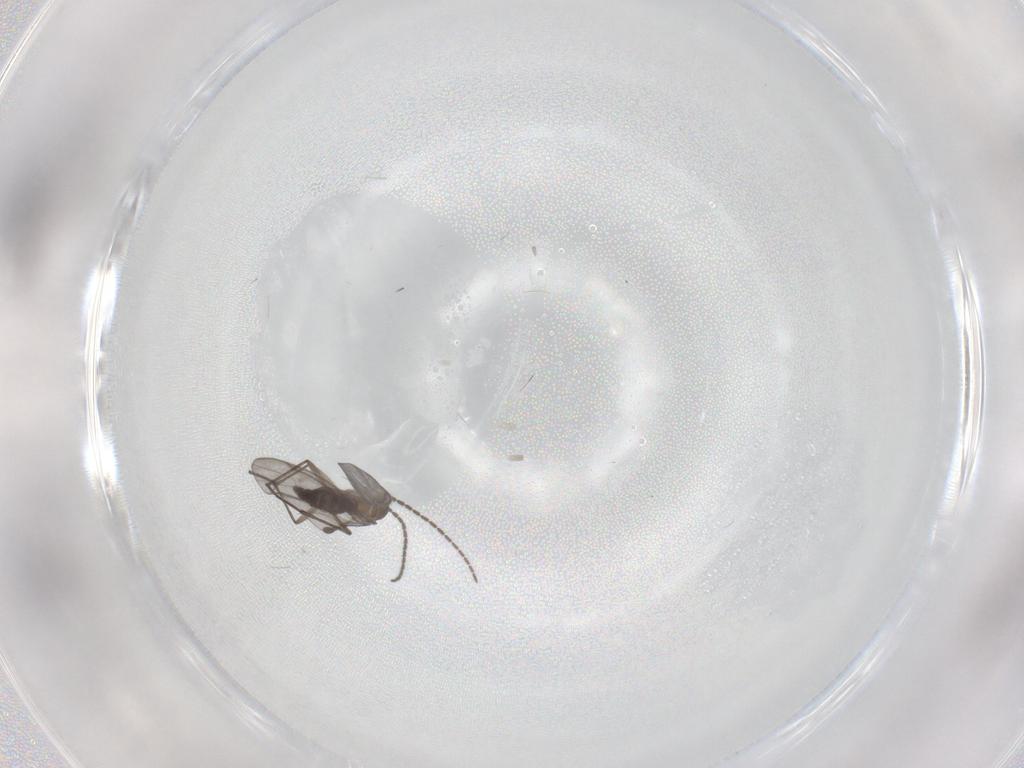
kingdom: Animalia
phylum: Arthropoda
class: Insecta
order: Diptera
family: Sciaridae
